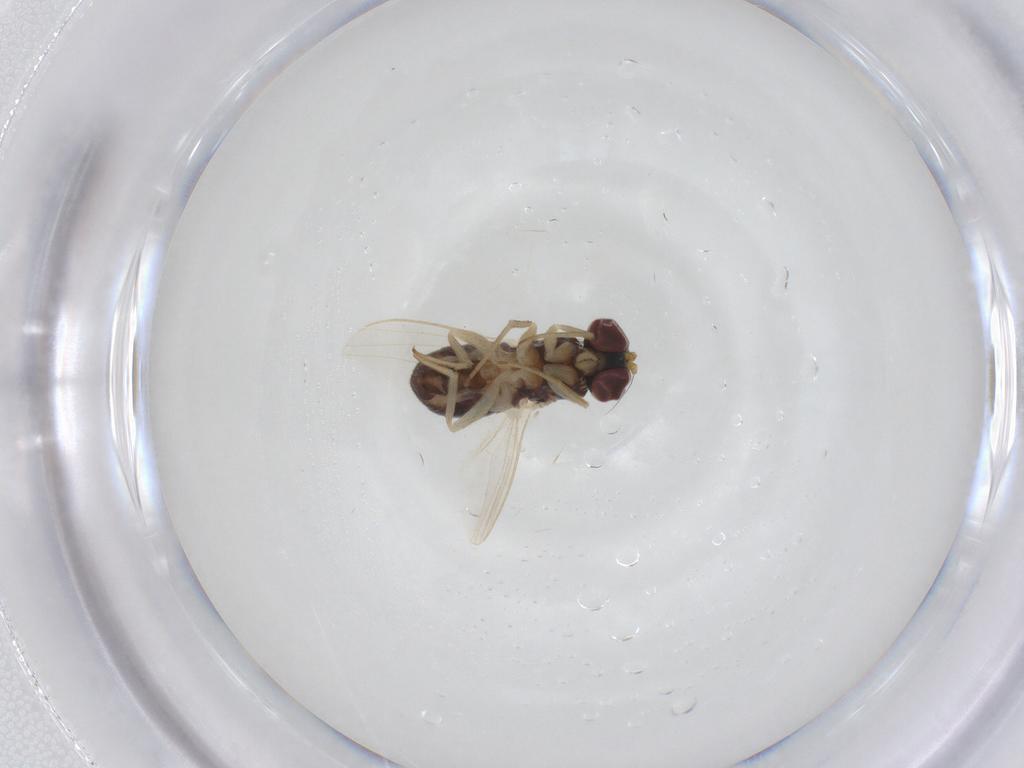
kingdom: Animalia
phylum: Arthropoda
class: Insecta
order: Diptera
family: Dolichopodidae
